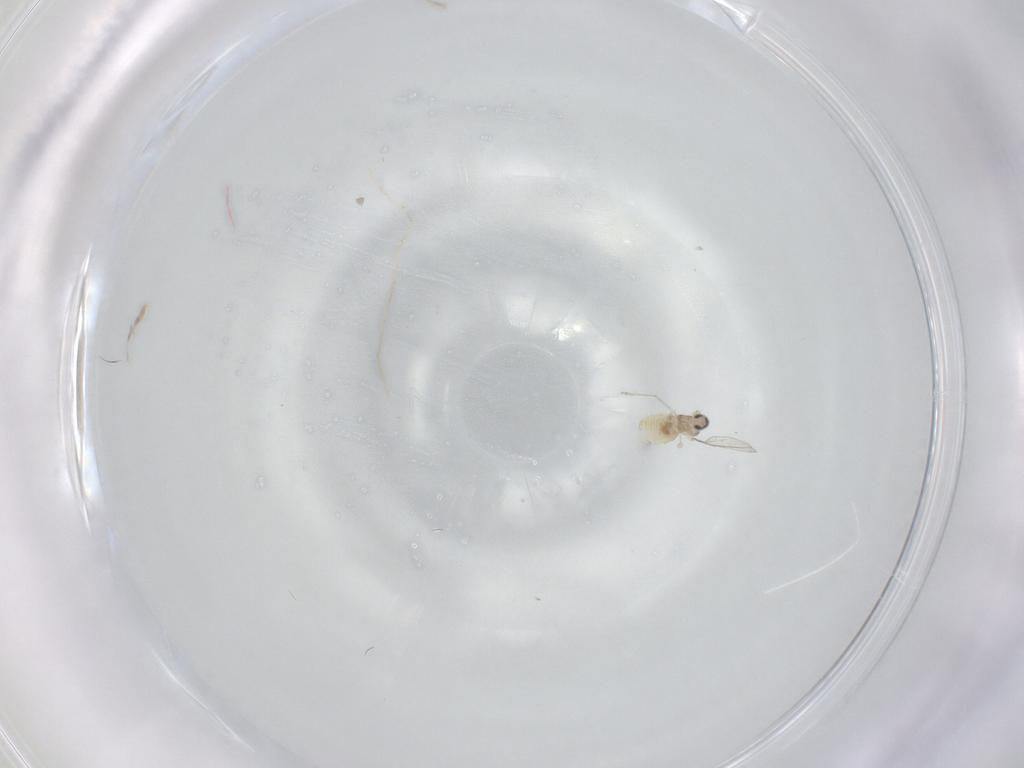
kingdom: Animalia
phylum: Arthropoda
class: Insecta
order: Diptera
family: Cecidomyiidae
